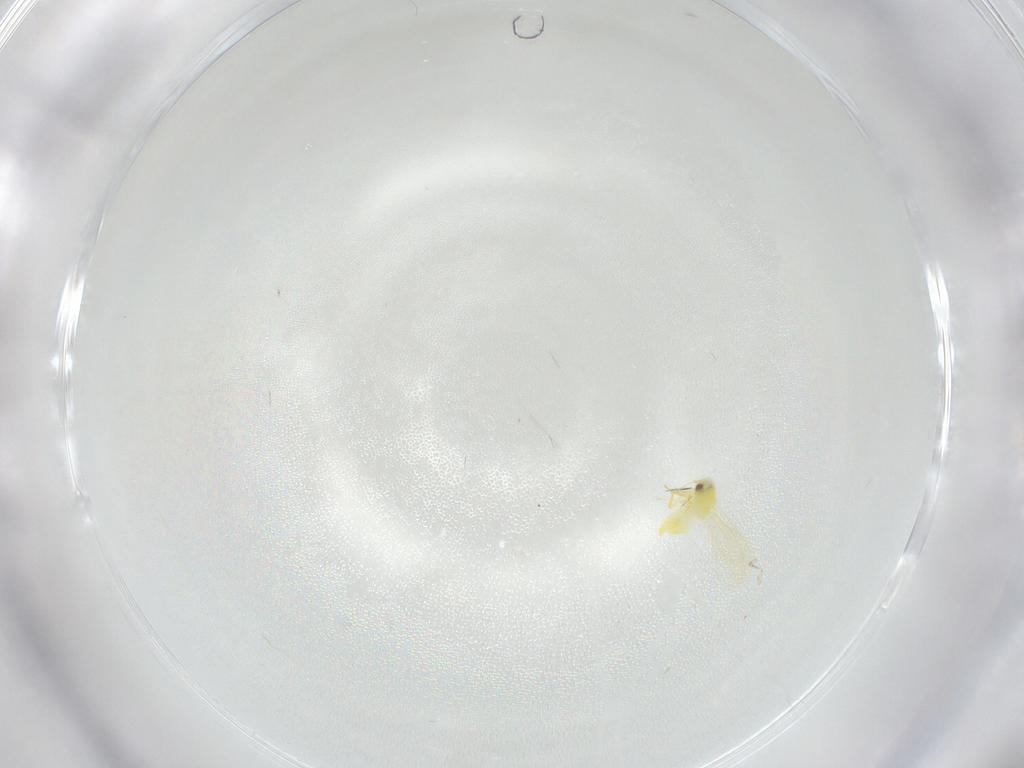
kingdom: Animalia
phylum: Arthropoda
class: Insecta
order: Hemiptera
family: Aleyrodidae
